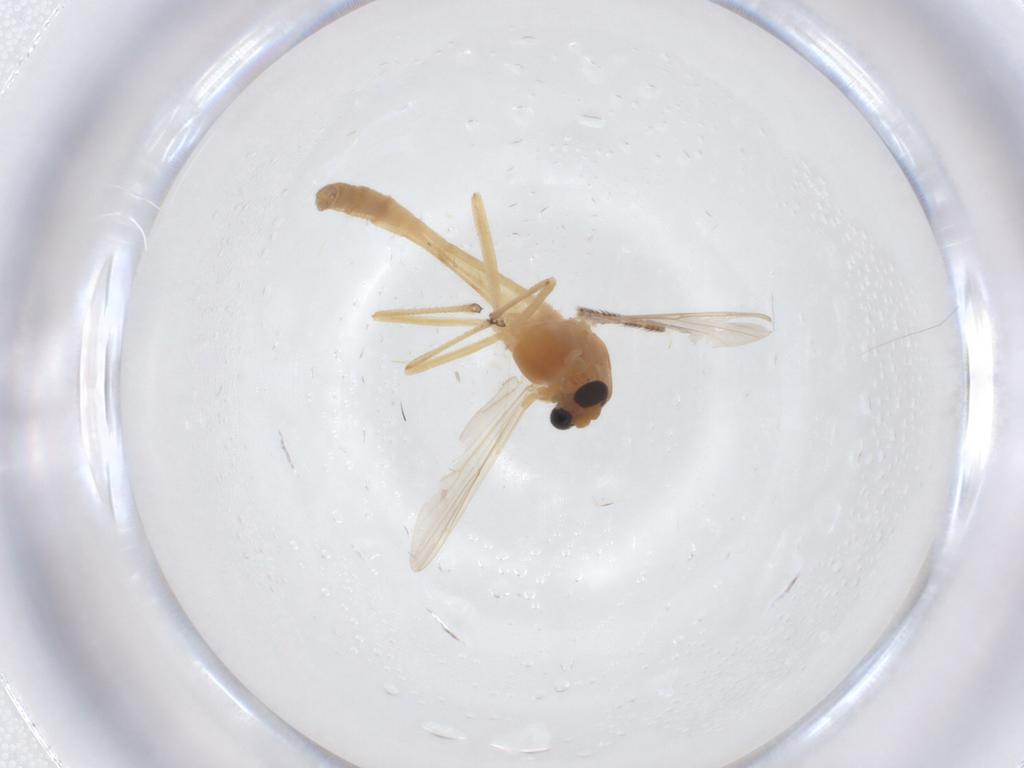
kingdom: Animalia
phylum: Arthropoda
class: Insecta
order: Diptera
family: Chironomidae
